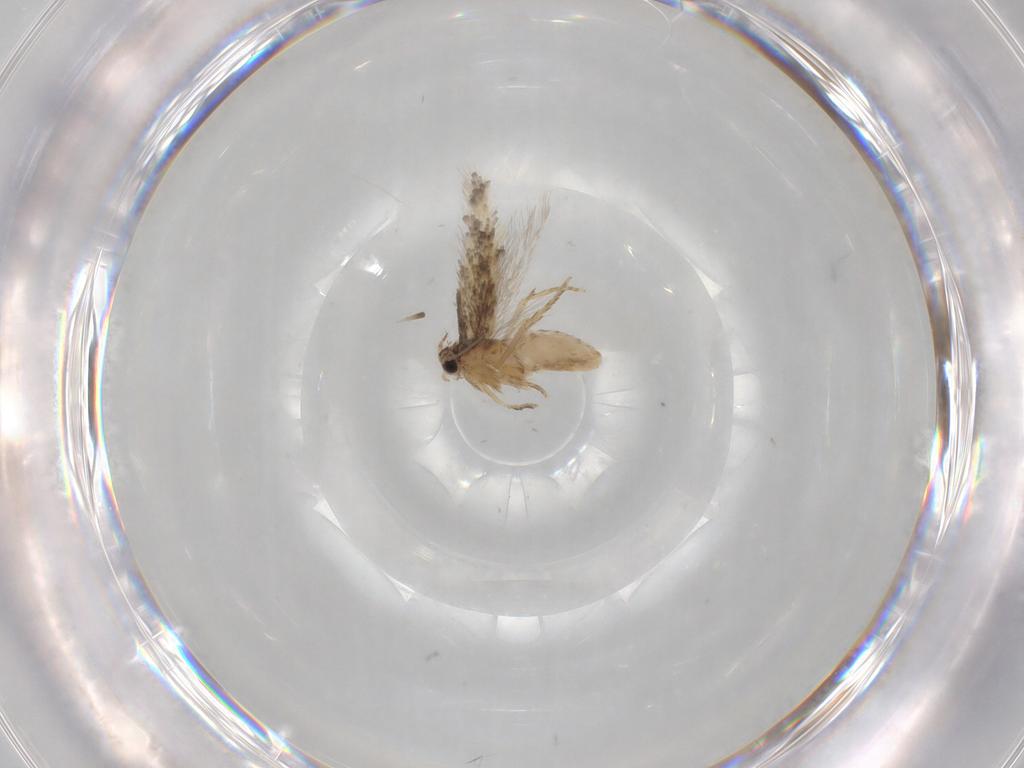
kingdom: Animalia
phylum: Arthropoda
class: Insecta
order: Lepidoptera
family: Nepticulidae
